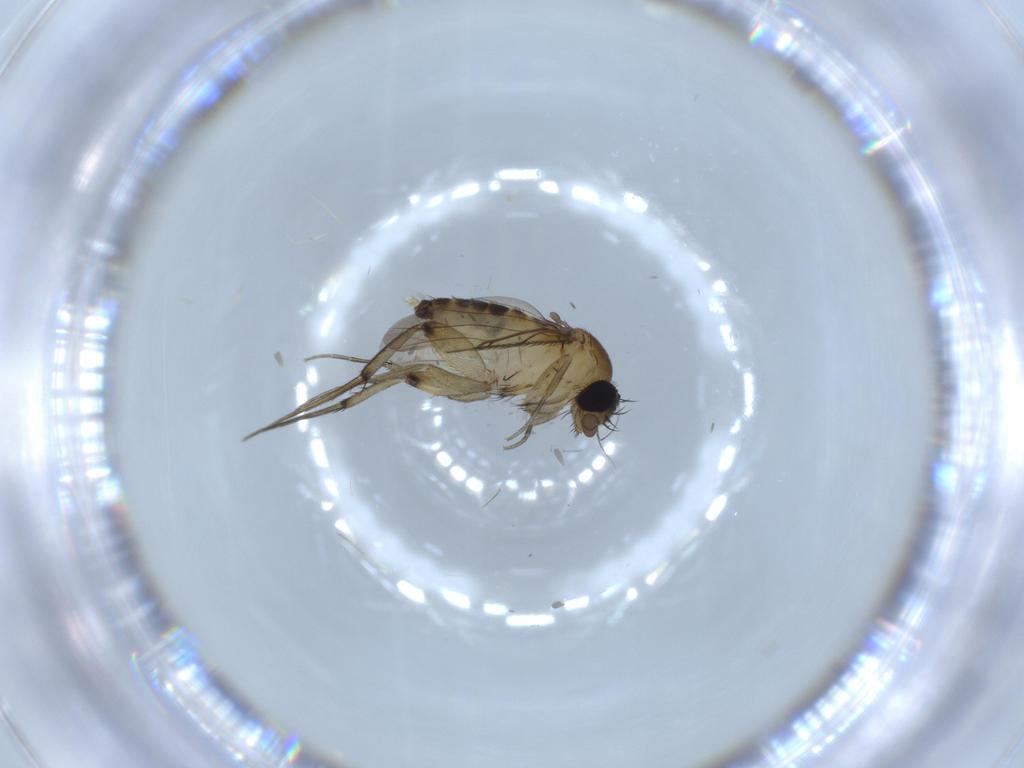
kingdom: Animalia
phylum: Arthropoda
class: Insecta
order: Diptera
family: Phoridae
